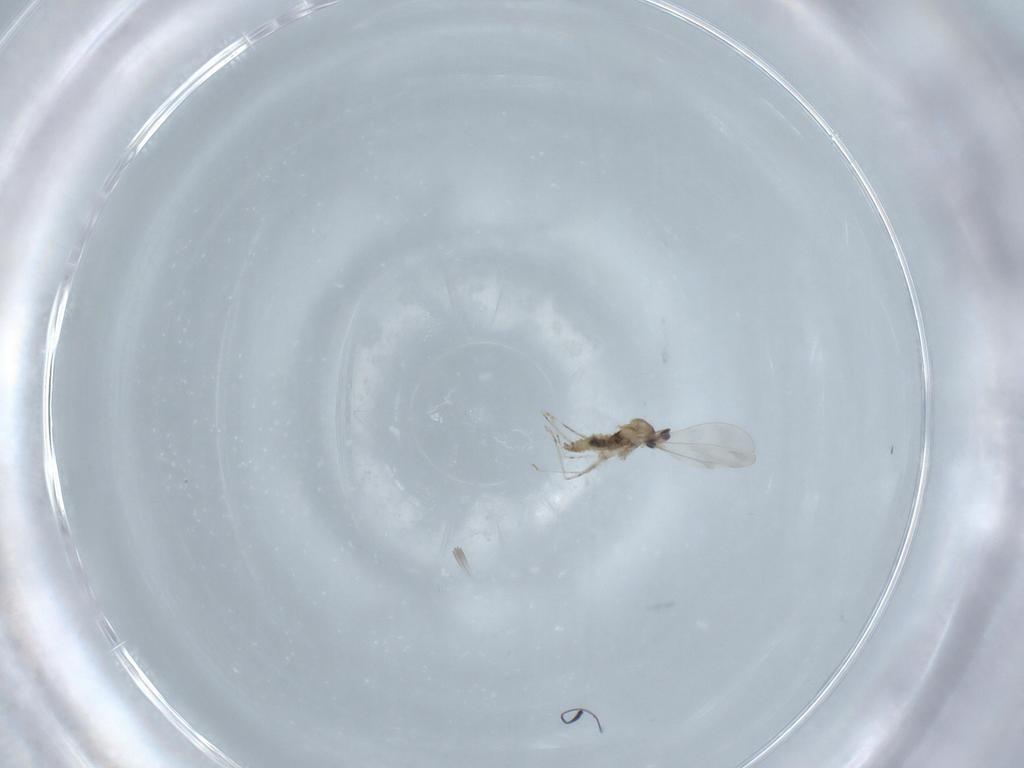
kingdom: Animalia
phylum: Arthropoda
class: Insecta
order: Diptera
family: Sciaridae
